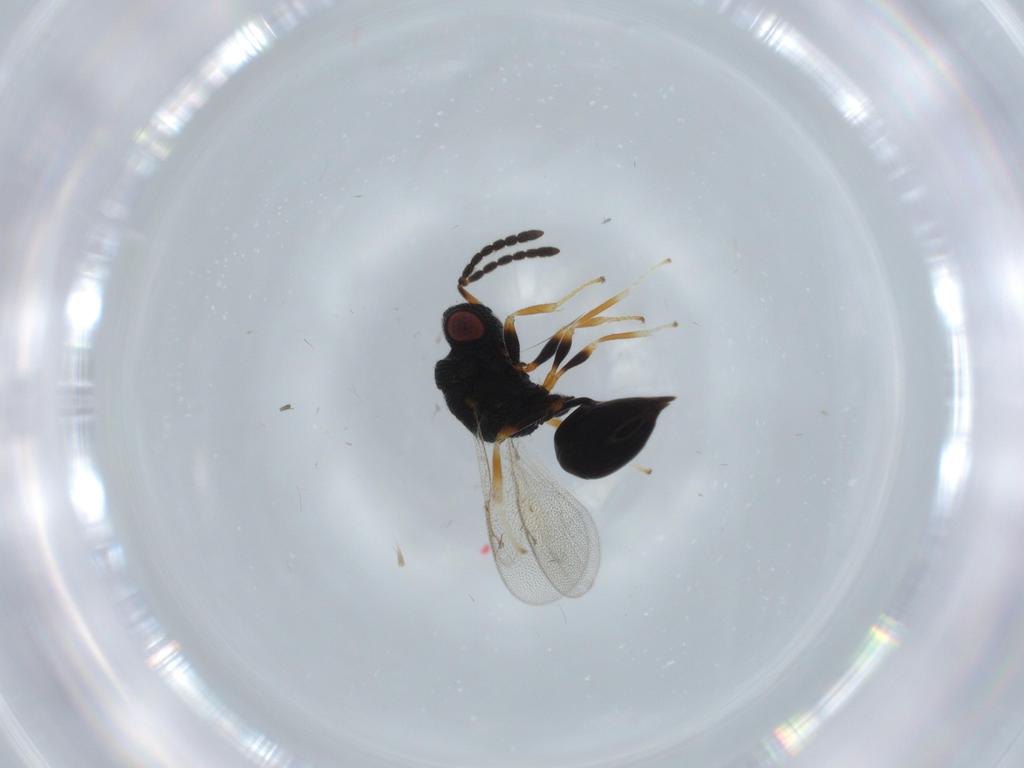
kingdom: Animalia
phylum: Arthropoda
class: Insecta
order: Hymenoptera
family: Eurytomidae
